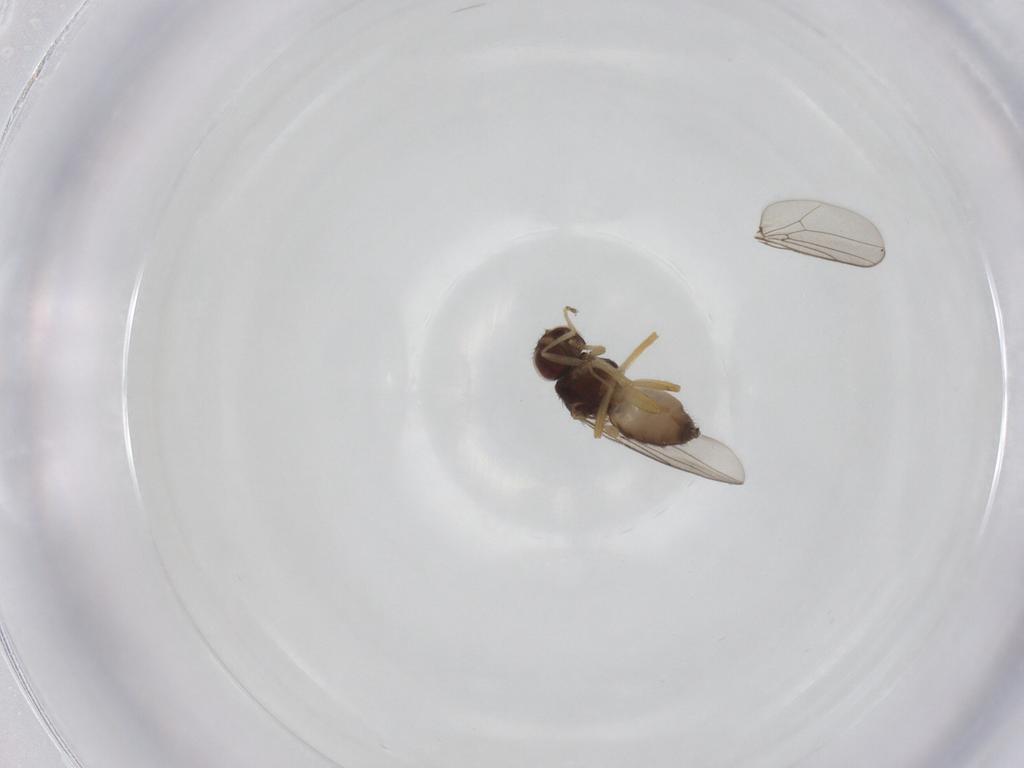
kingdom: Animalia
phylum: Arthropoda
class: Insecta
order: Diptera
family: Chloropidae
